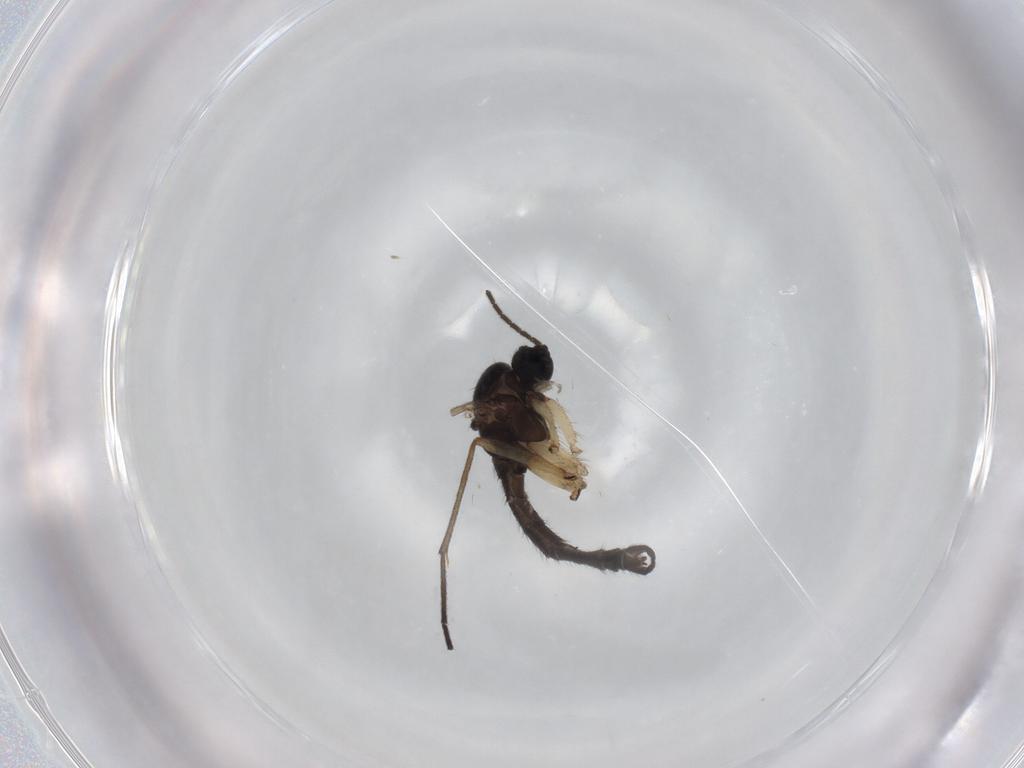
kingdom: Animalia
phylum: Arthropoda
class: Insecta
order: Diptera
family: Sciaridae
